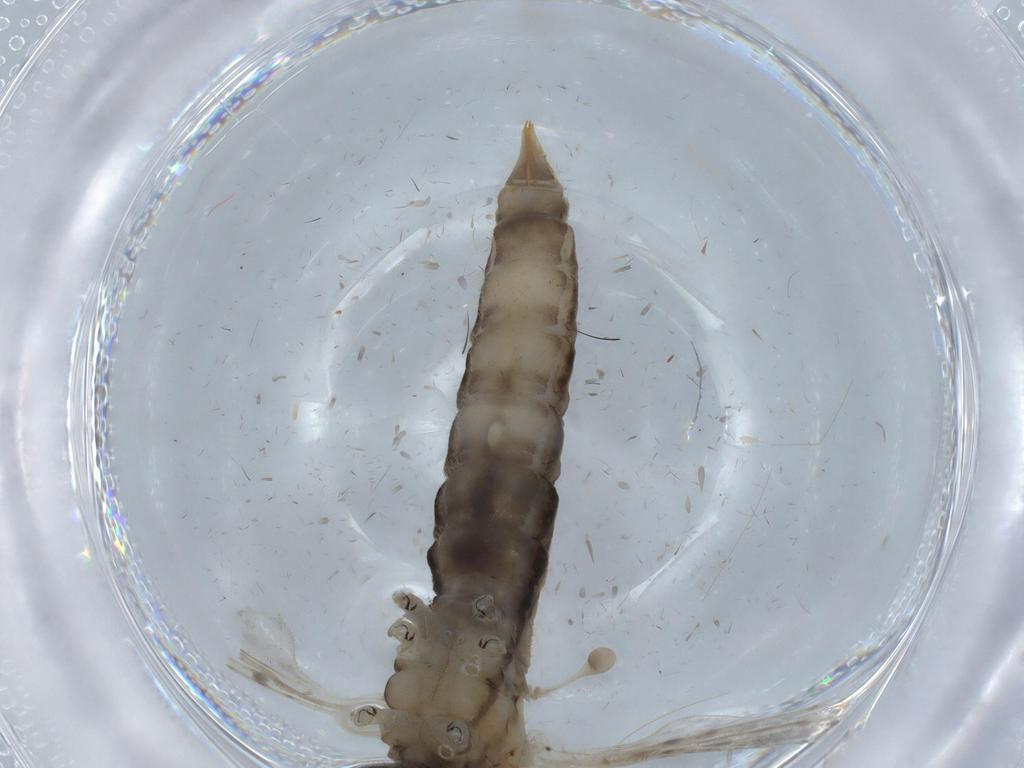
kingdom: Animalia
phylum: Arthropoda
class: Insecta
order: Diptera
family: Psychodidae
